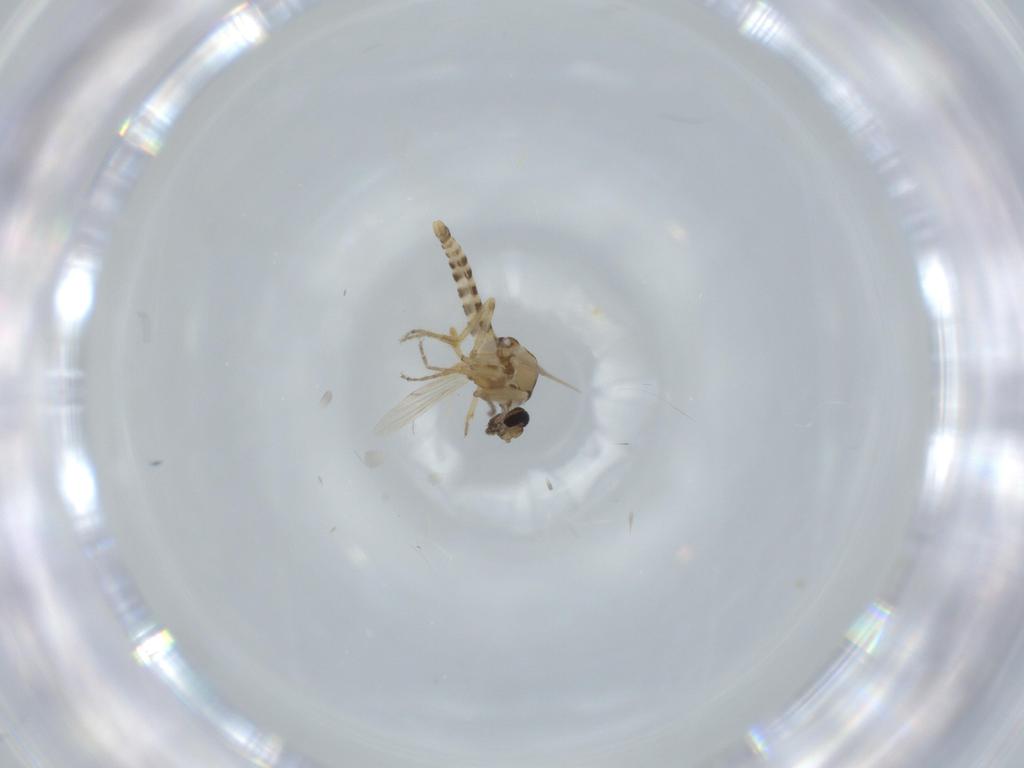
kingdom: Animalia
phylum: Arthropoda
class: Insecta
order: Diptera
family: Ceratopogonidae
